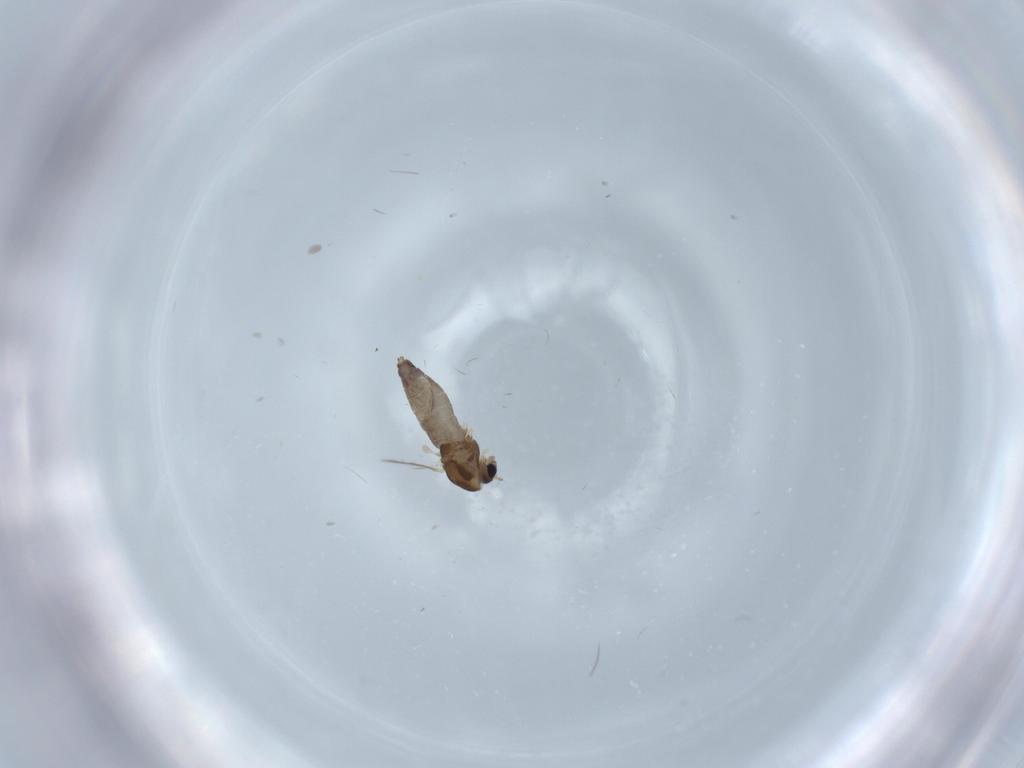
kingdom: Animalia
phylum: Arthropoda
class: Insecta
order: Diptera
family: Chironomidae
